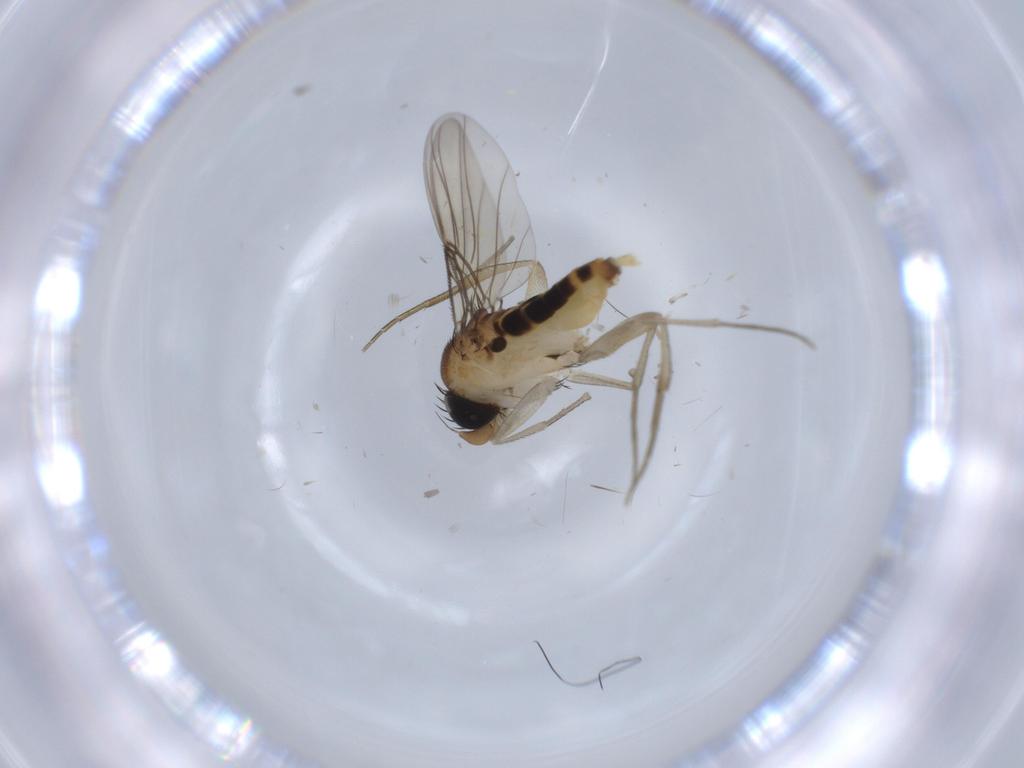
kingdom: Animalia
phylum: Arthropoda
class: Insecta
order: Diptera
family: Phoridae
